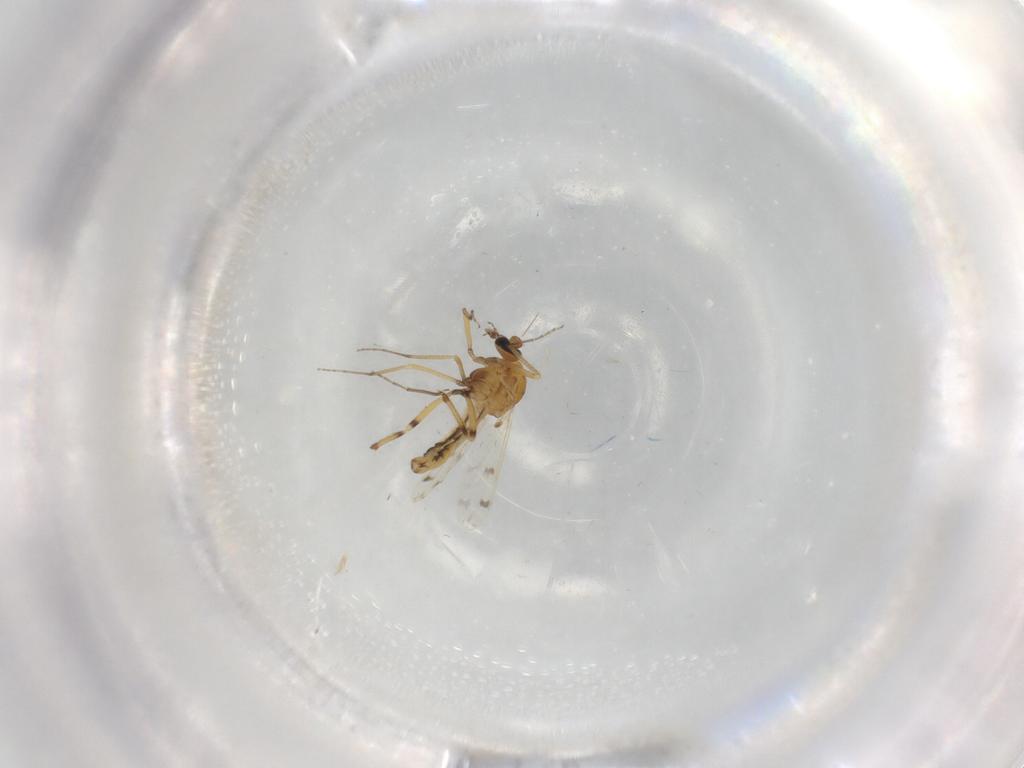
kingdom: Animalia
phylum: Arthropoda
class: Insecta
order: Diptera
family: Ceratopogonidae
